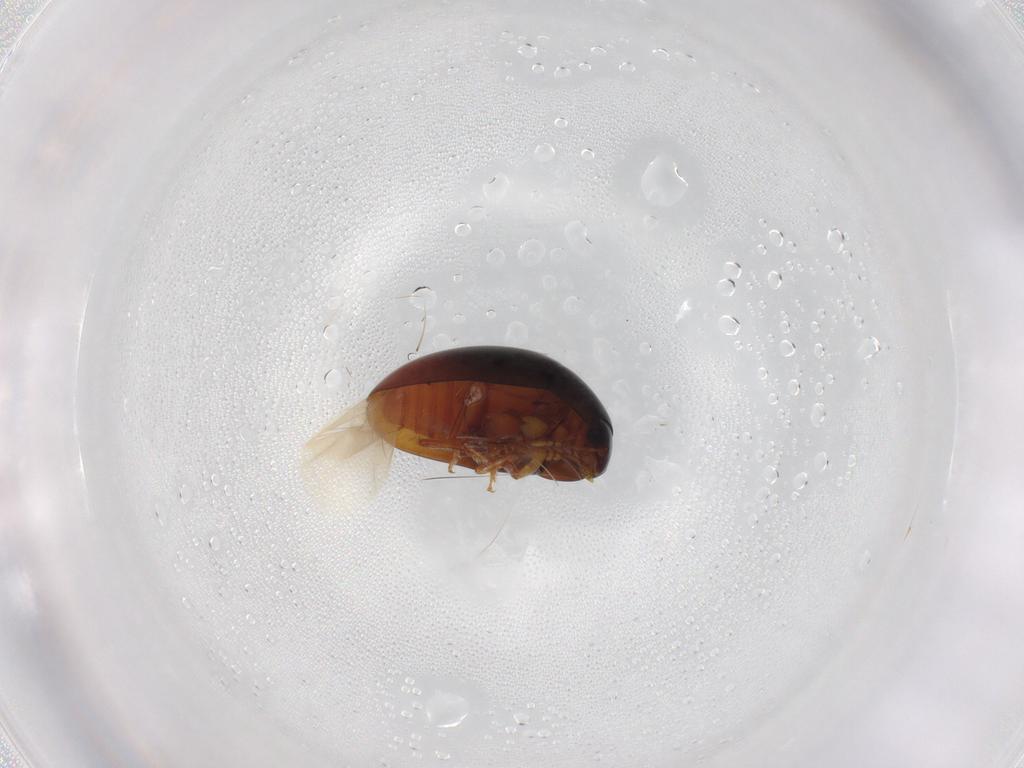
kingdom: Animalia
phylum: Arthropoda
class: Insecta
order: Coleoptera
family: Phalacridae
